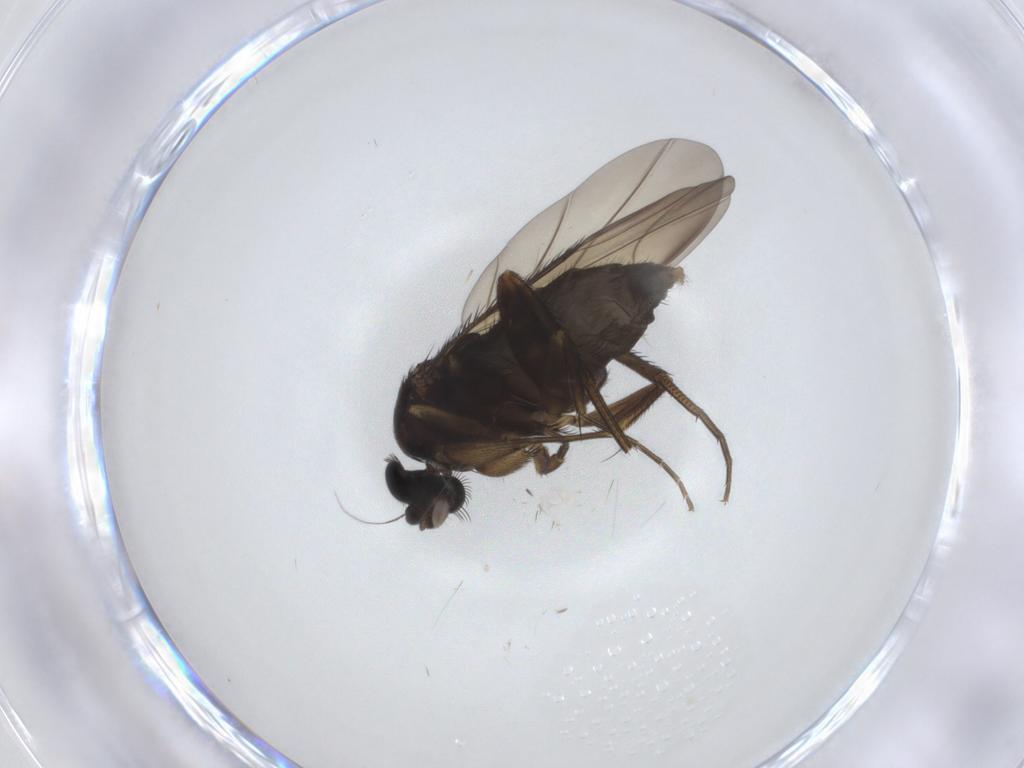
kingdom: Animalia
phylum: Arthropoda
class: Insecta
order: Diptera
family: Phoridae
